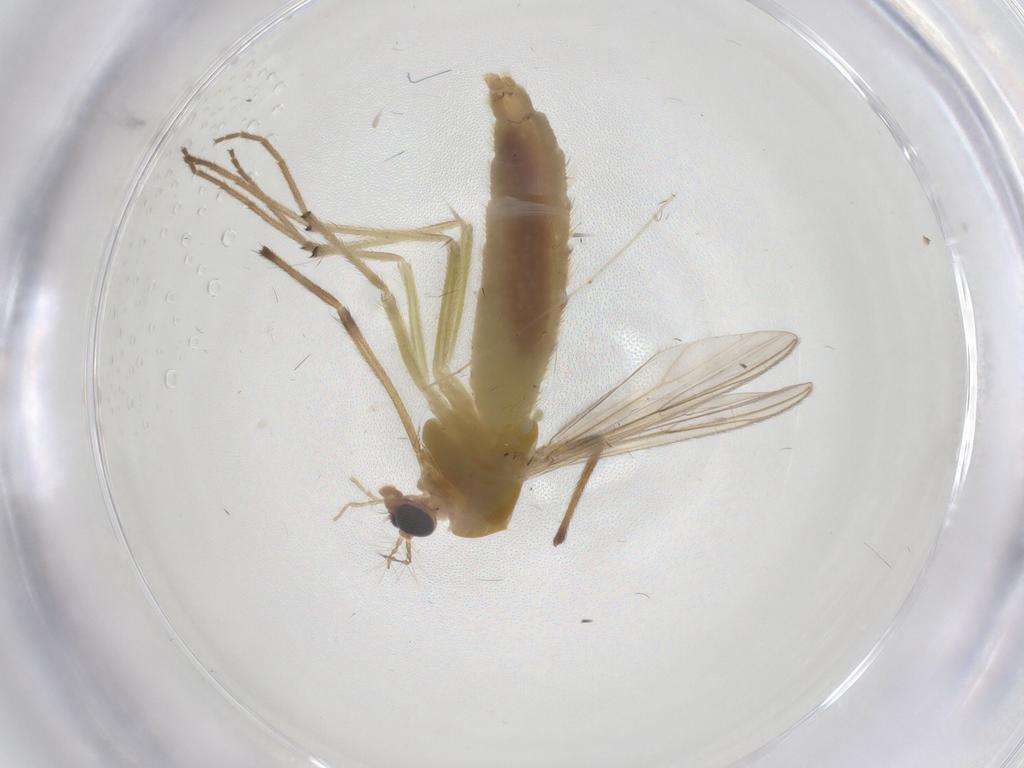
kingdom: Animalia
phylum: Arthropoda
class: Insecta
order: Diptera
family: Chironomidae
